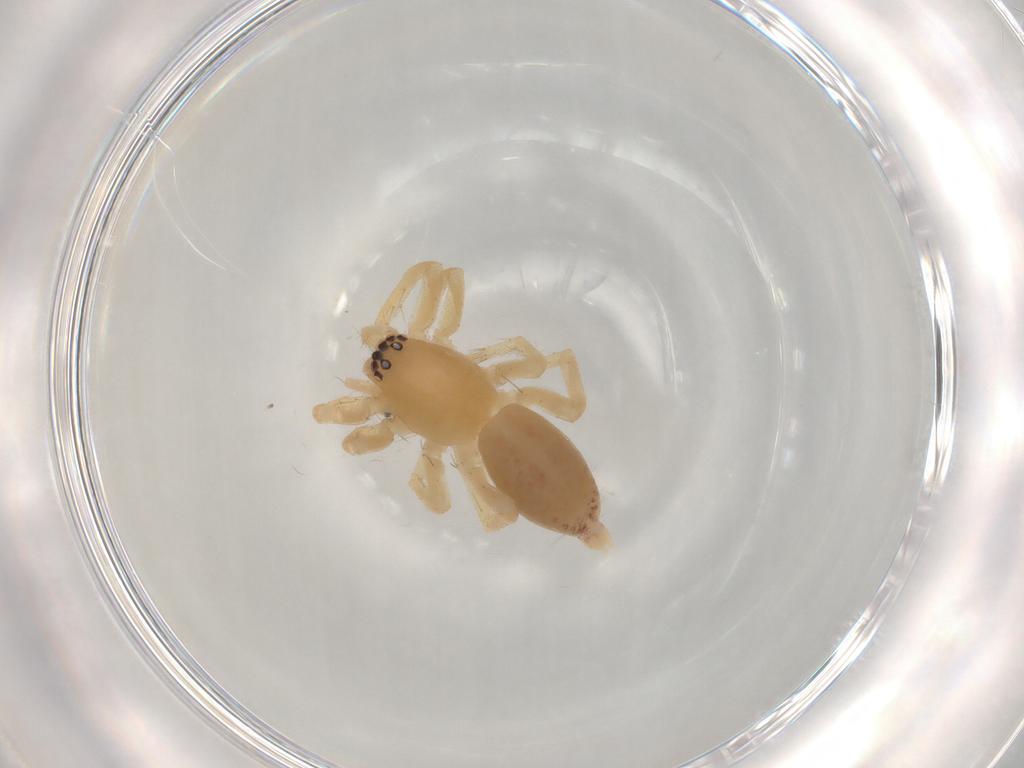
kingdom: Animalia
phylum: Arthropoda
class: Arachnida
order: Araneae
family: Clubionidae
